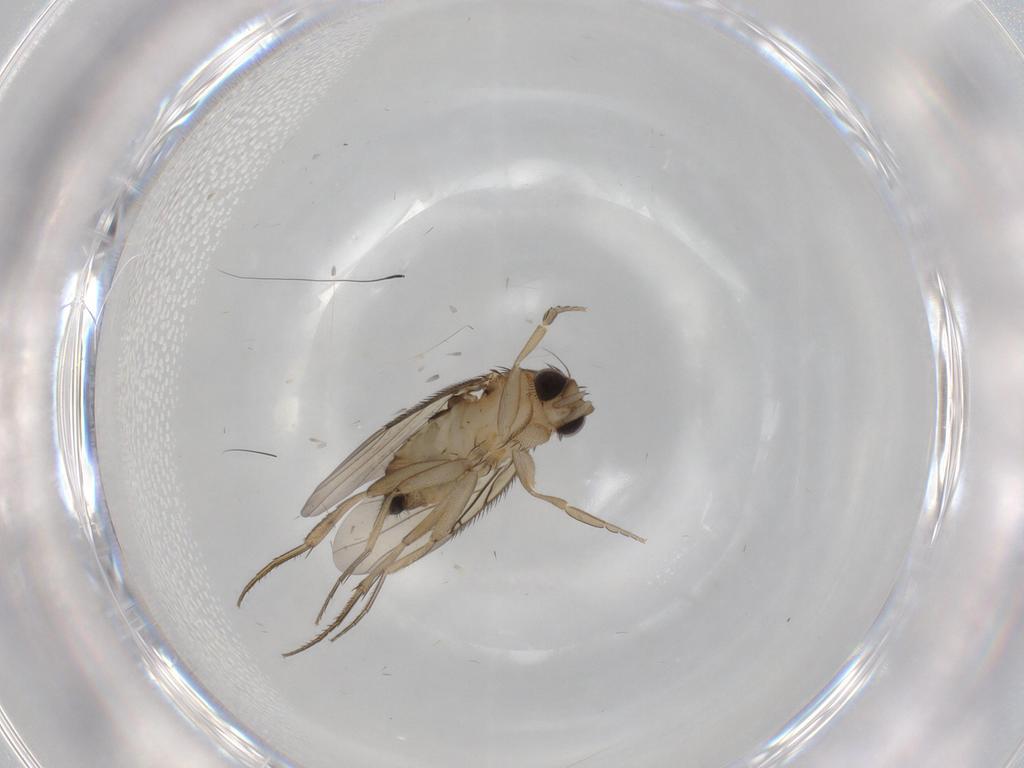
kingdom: Animalia
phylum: Arthropoda
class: Insecta
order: Diptera
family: Phoridae
